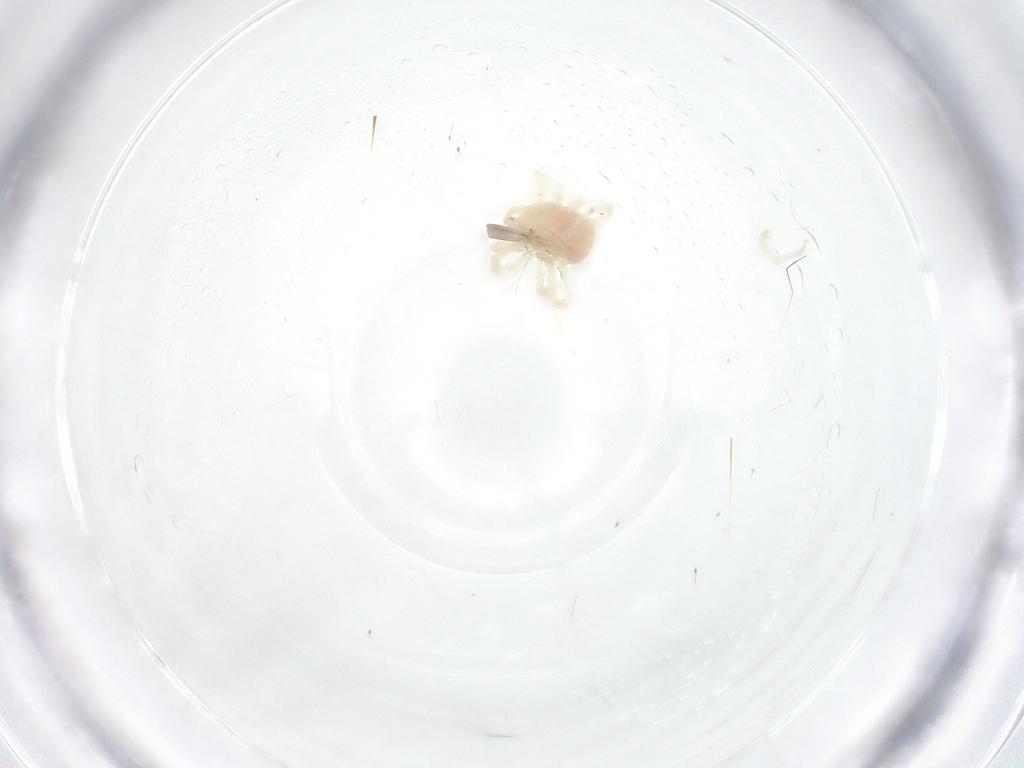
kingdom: Animalia
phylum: Arthropoda
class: Arachnida
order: Trombidiformes
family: Anystidae
